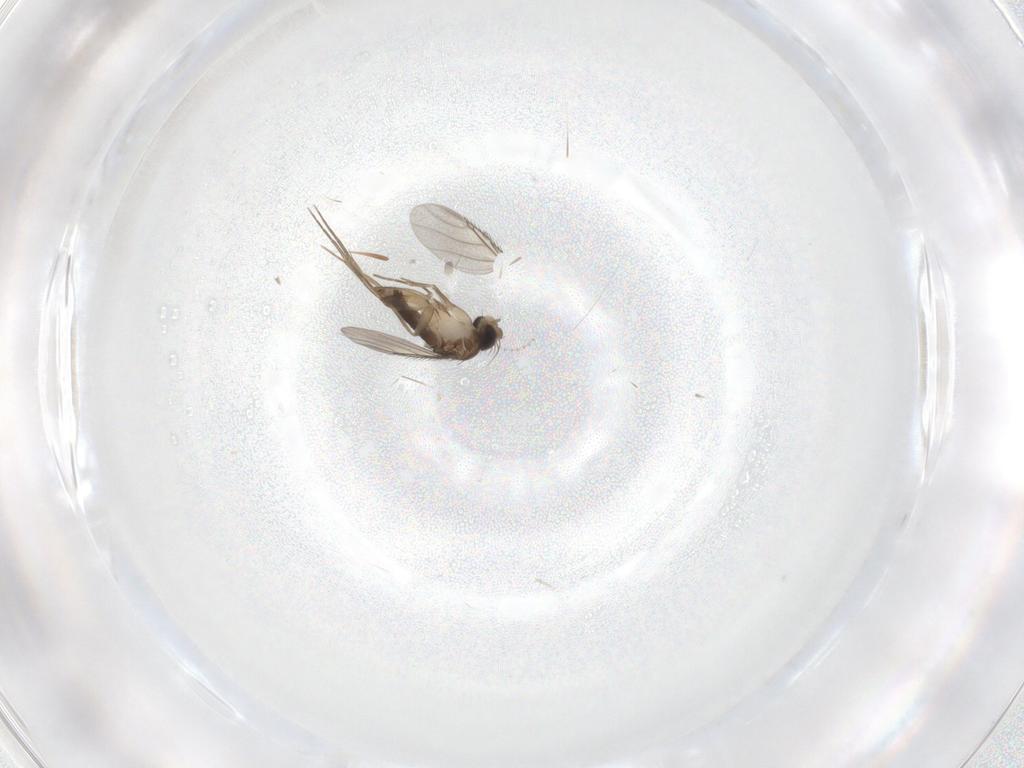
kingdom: Animalia
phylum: Arthropoda
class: Insecta
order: Diptera
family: Phoridae
